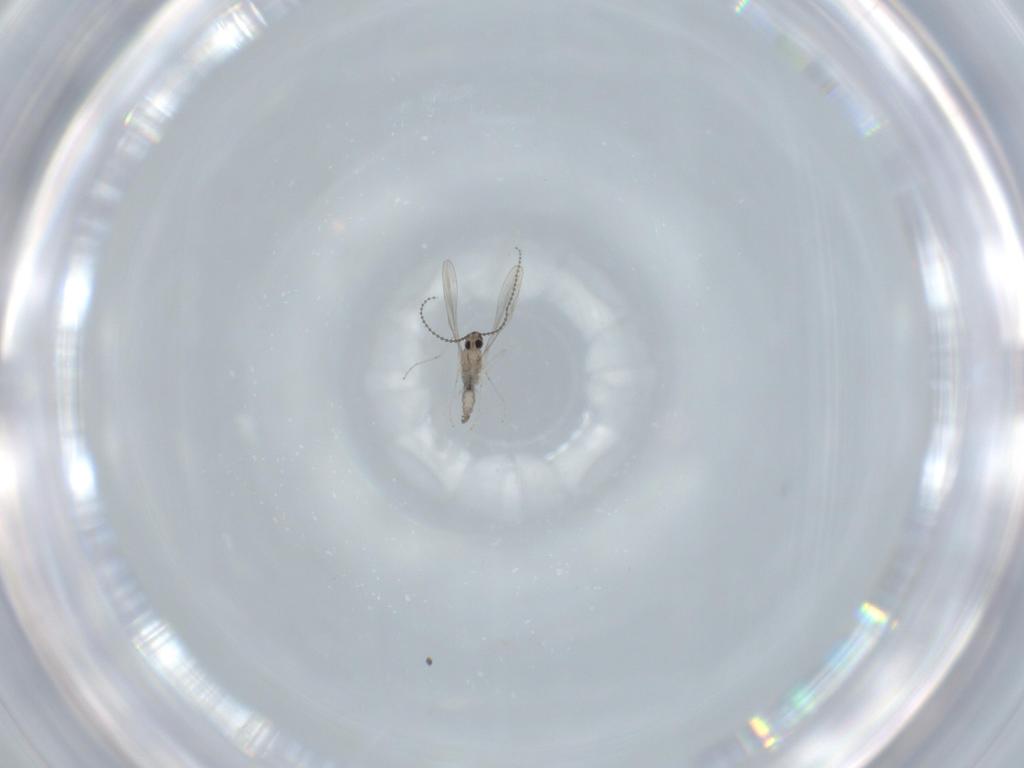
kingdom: Animalia
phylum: Arthropoda
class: Insecta
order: Diptera
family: Cecidomyiidae
